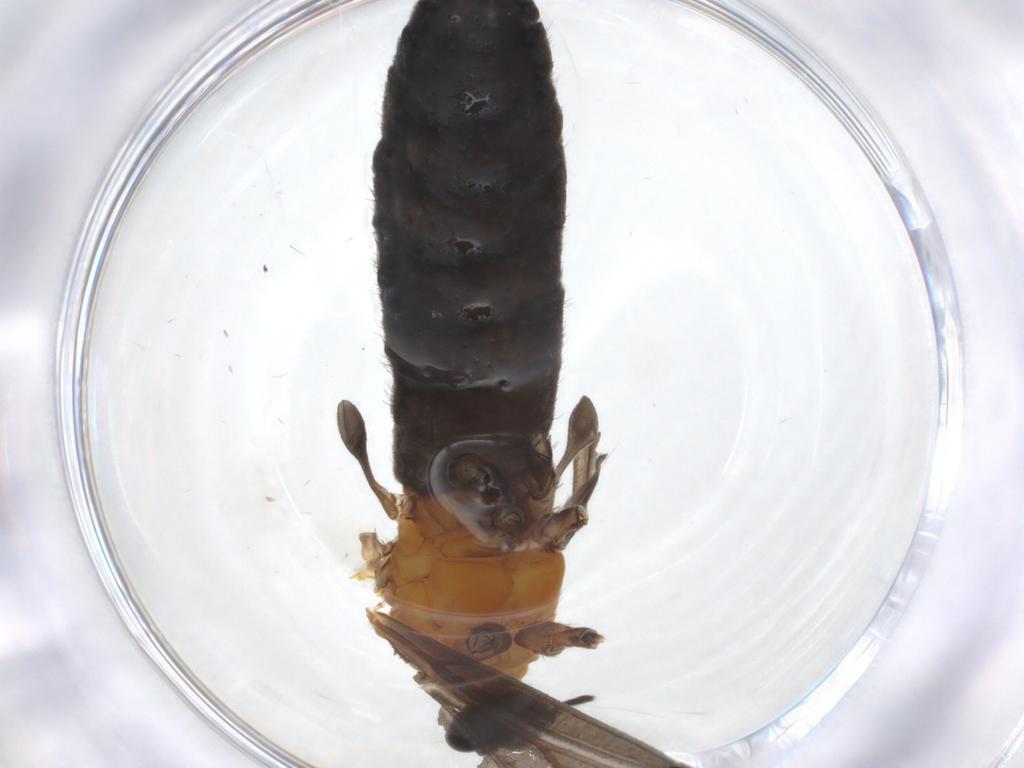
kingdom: Animalia
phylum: Arthropoda
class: Insecta
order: Diptera
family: Bibionidae
